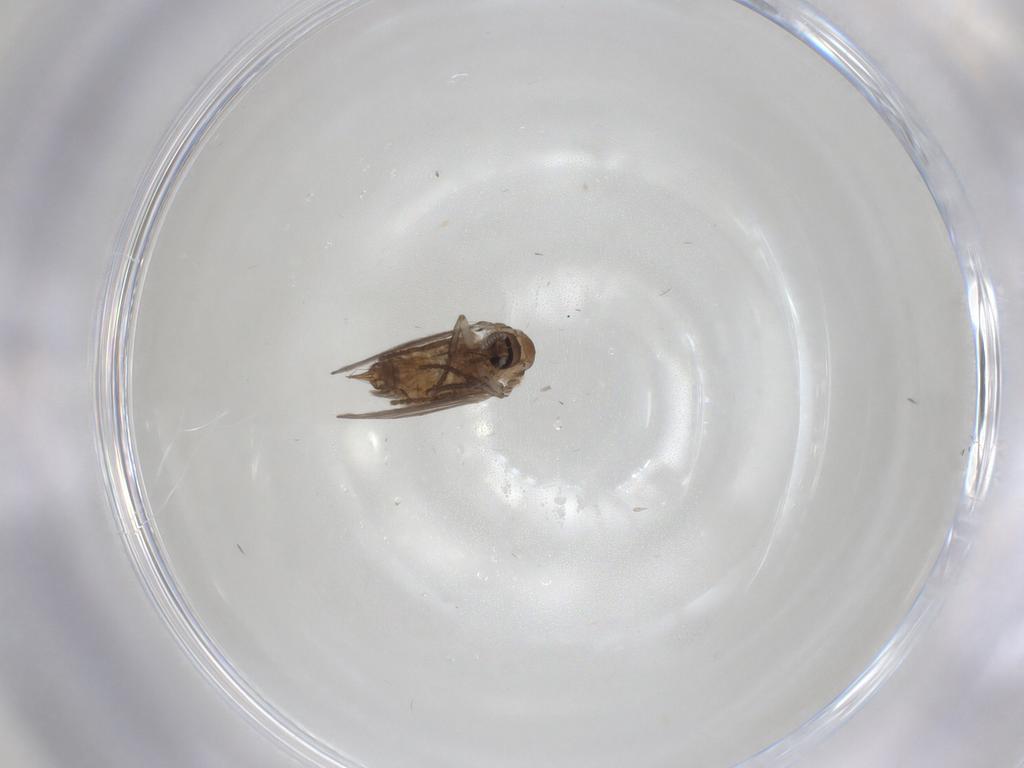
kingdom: Animalia
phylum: Arthropoda
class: Insecta
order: Diptera
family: Psychodidae
